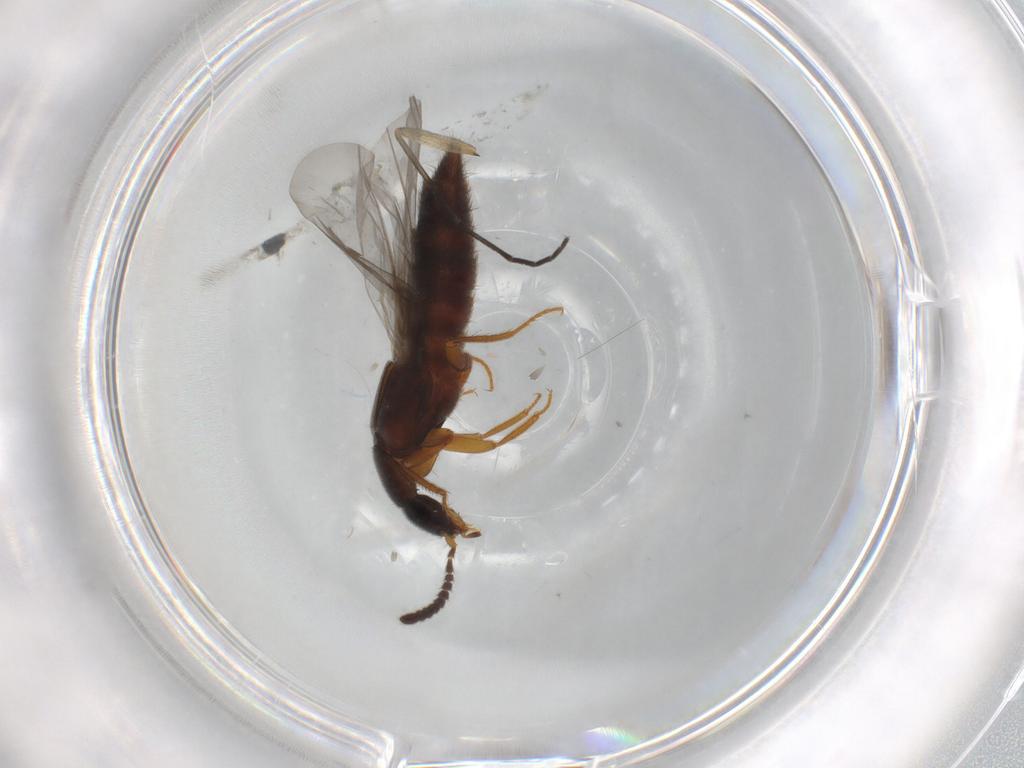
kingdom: Animalia
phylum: Arthropoda
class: Insecta
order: Coleoptera
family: Staphylinidae
